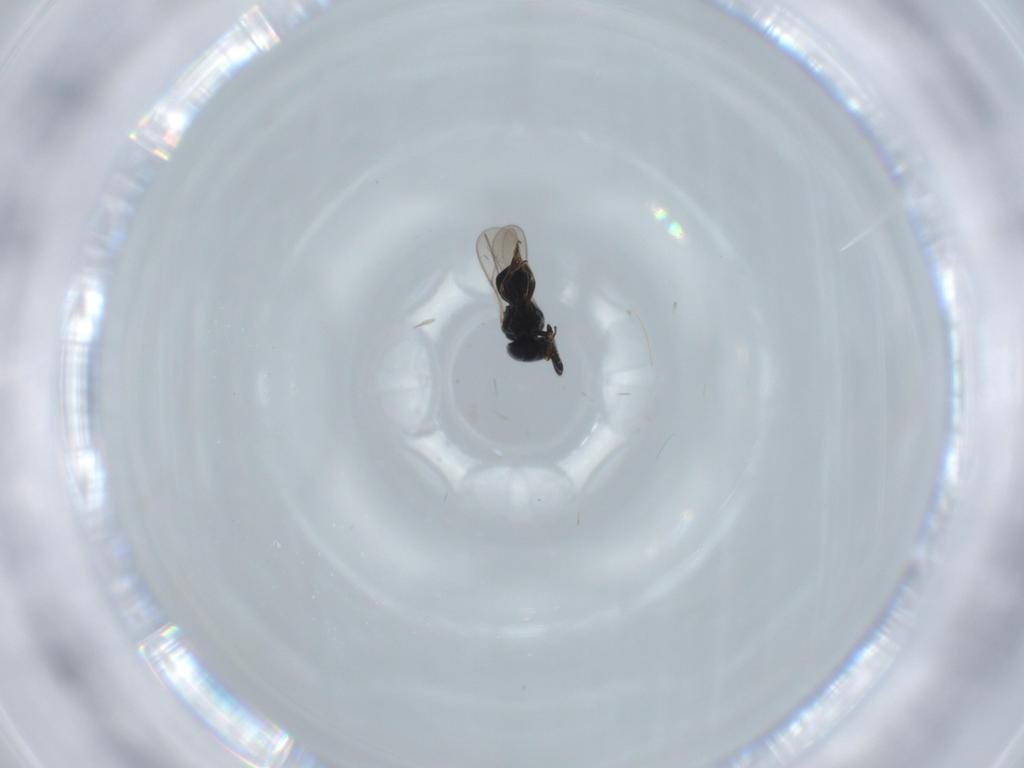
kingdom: Animalia
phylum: Arthropoda
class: Insecta
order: Hymenoptera
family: Scelionidae
